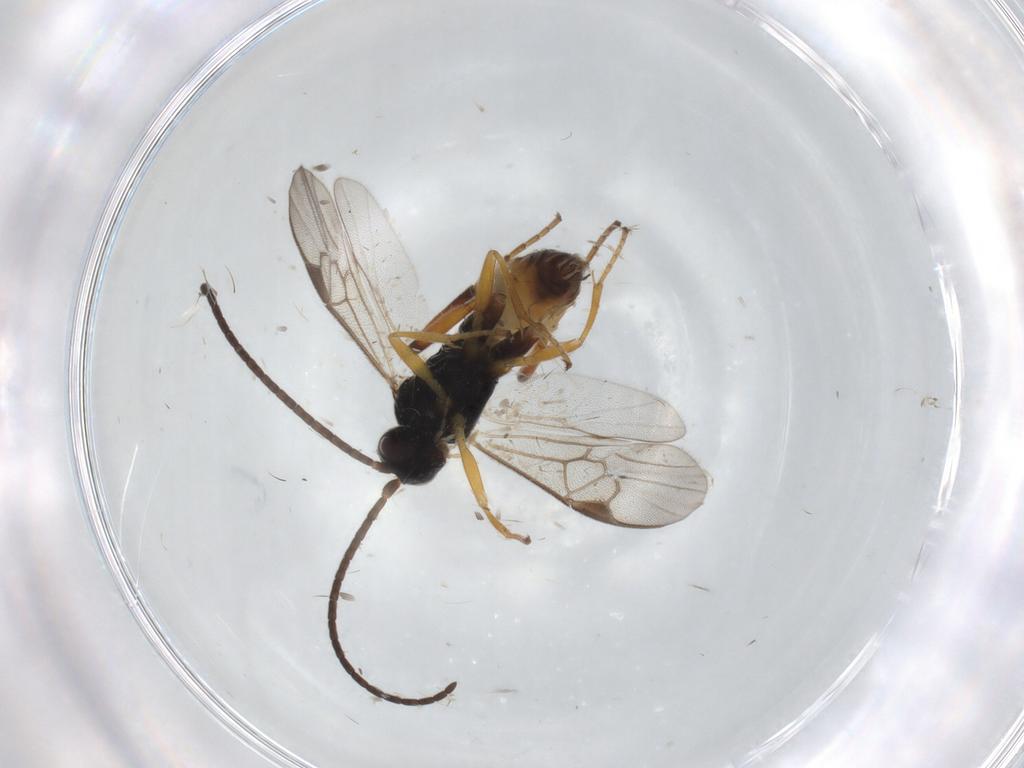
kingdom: Animalia
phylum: Arthropoda
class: Insecta
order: Hymenoptera
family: Braconidae
